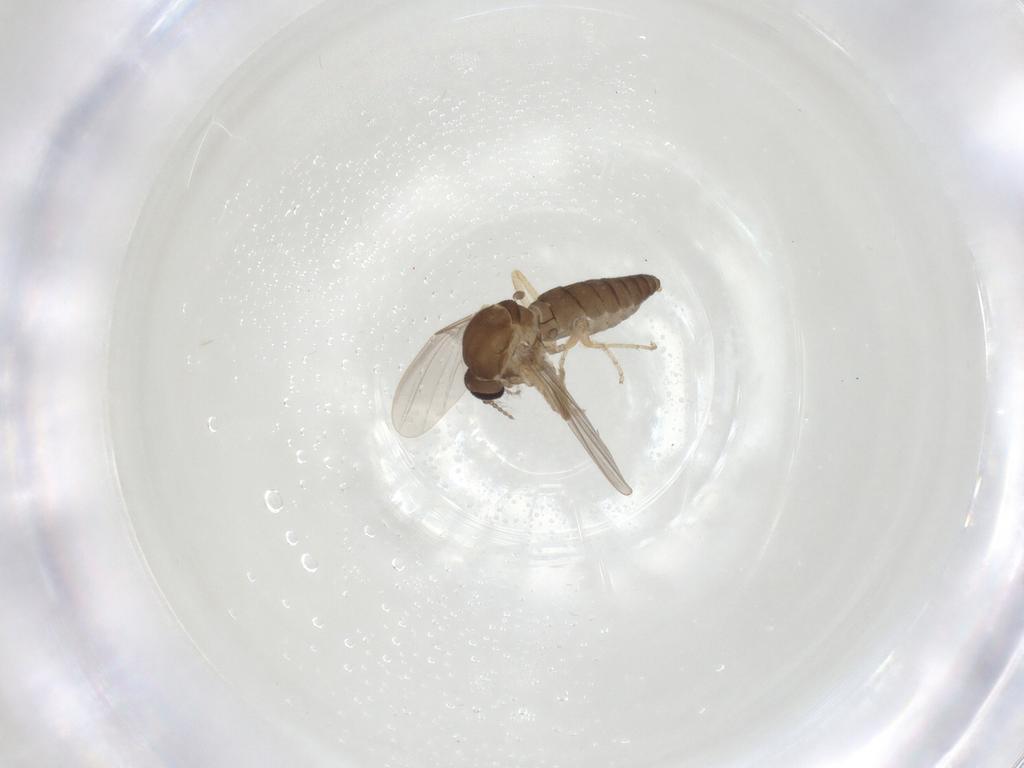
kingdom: Animalia
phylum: Arthropoda
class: Insecta
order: Diptera
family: Ceratopogonidae
